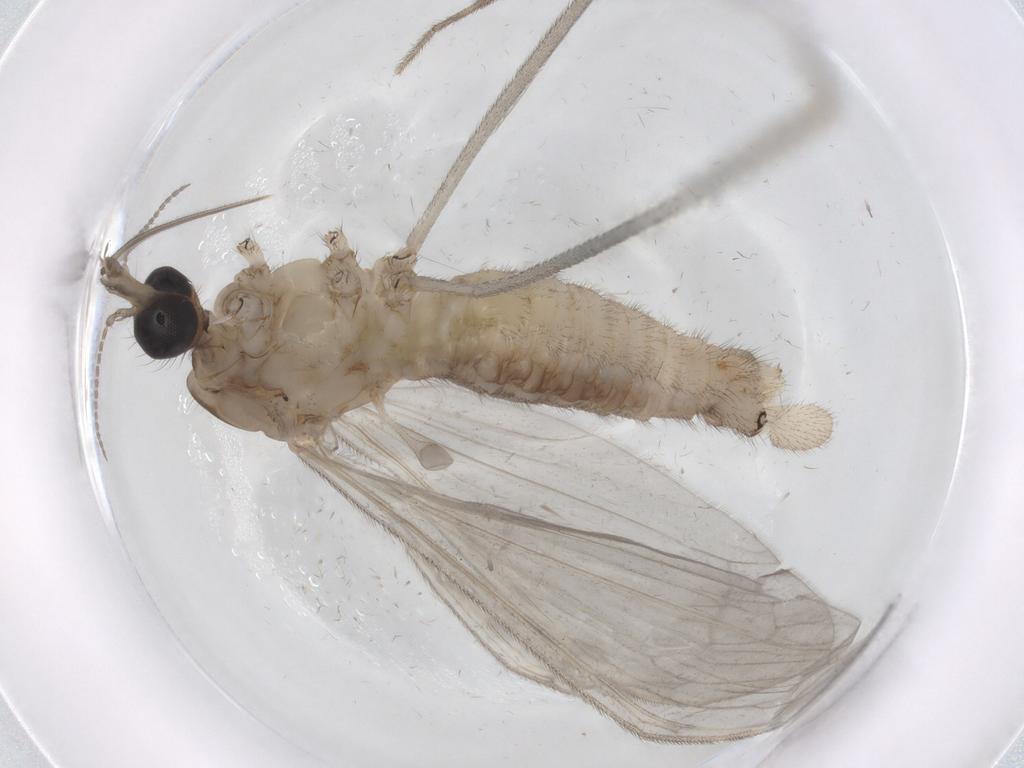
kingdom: Animalia
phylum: Arthropoda
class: Insecta
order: Diptera
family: Limoniidae
